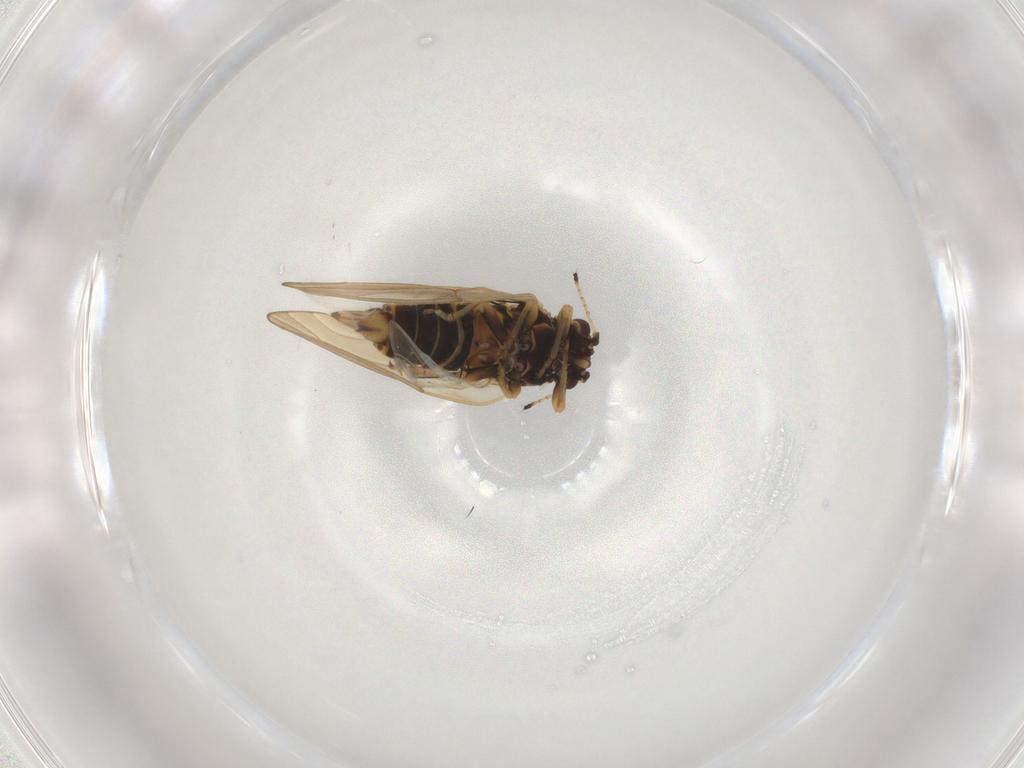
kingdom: Animalia
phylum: Arthropoda
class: Insecta
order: Hemiptera
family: Aphalaridae
